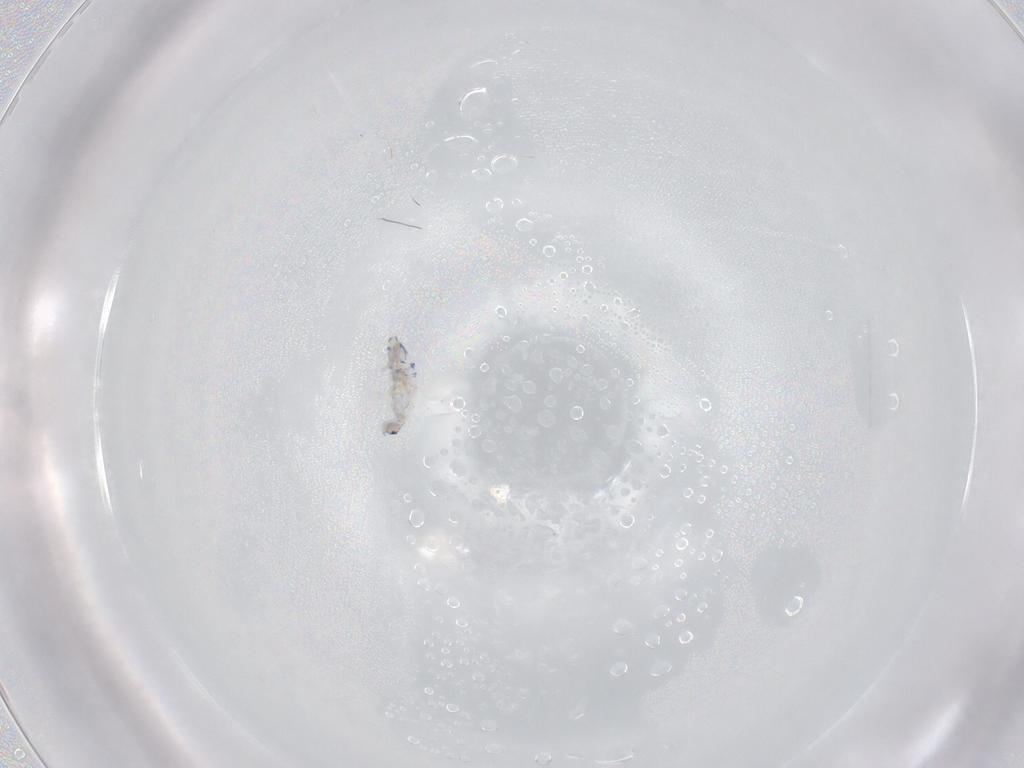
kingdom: Animalia
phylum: Arthropoda
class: Collembola
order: Entomobryomorpha
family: Entomobryidae
